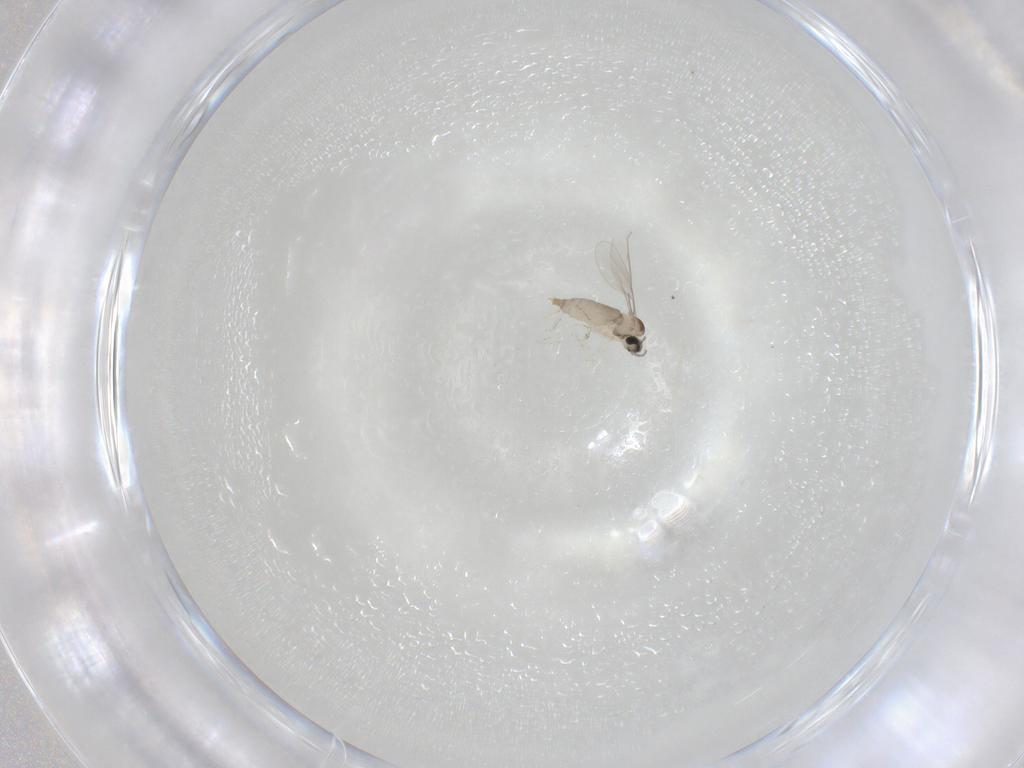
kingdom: Animalia
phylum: Arthropoda
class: Insecta
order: Diptera
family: Cecidomyiidae
